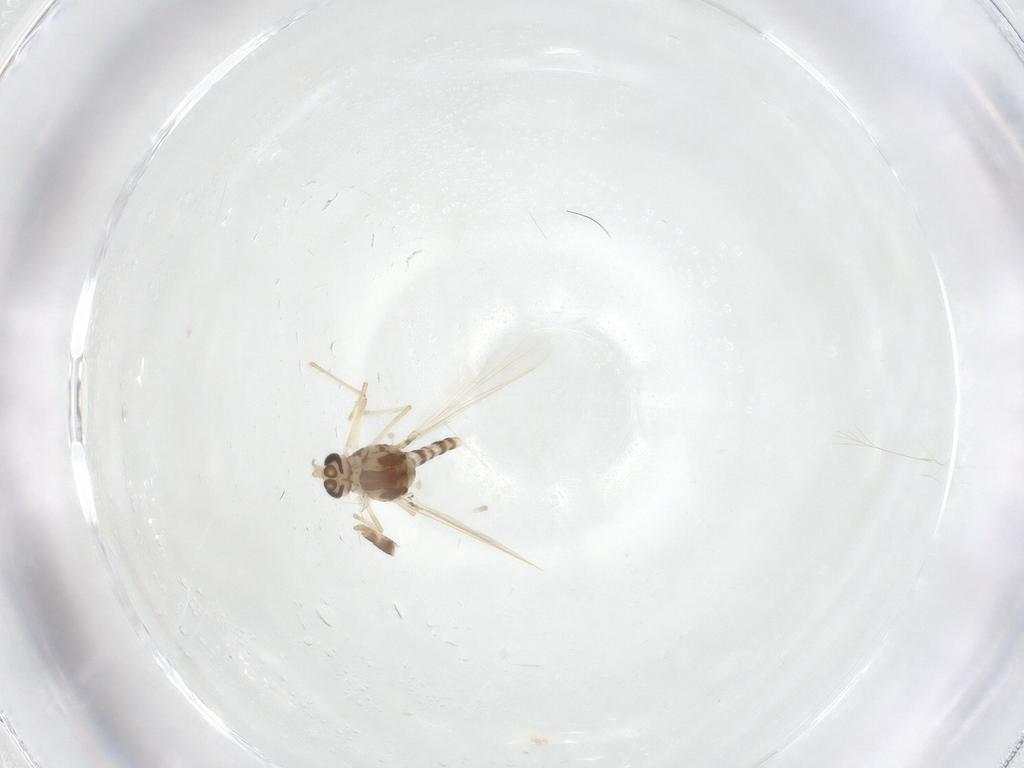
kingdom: Animalia
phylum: Arthropoda
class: Insecta
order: Diptera
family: Chironomidae
